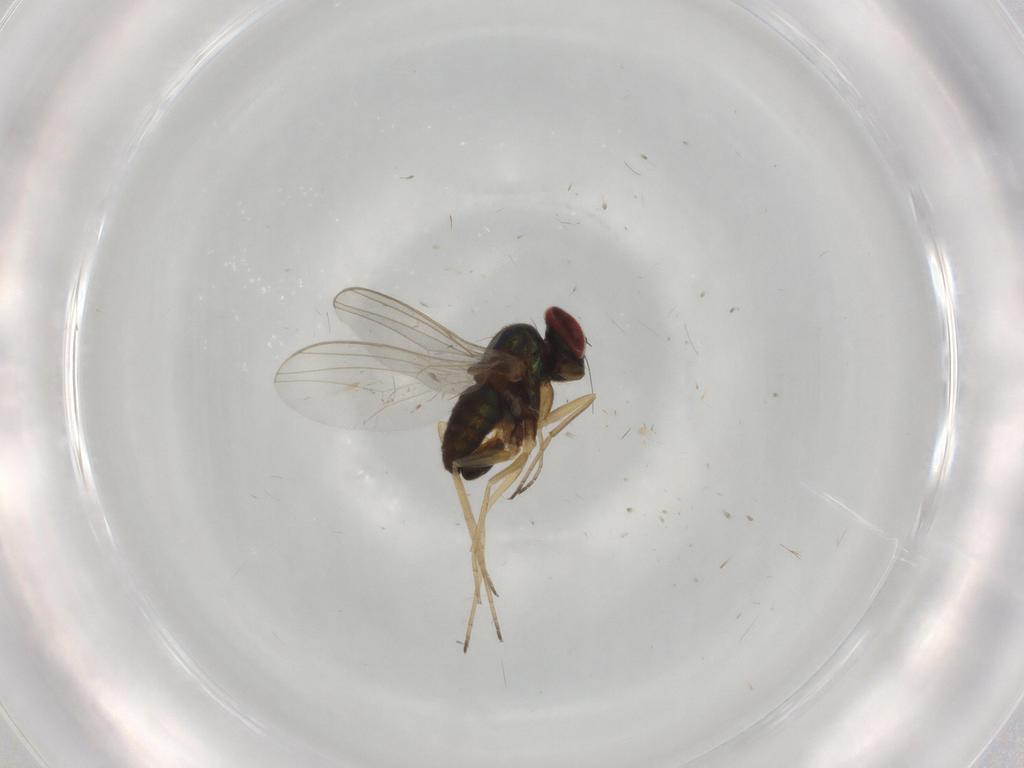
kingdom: Animalia
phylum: Arthropoda
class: Insecta
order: Diptera
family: Dolichopodidae
